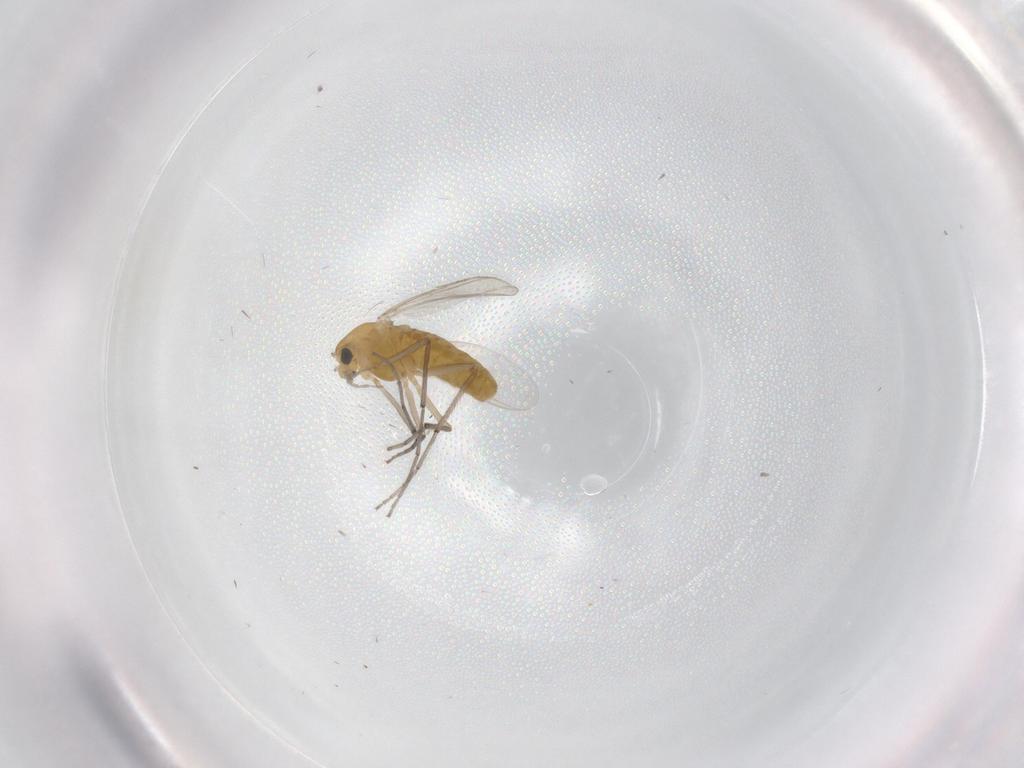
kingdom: Animalia
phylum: Arthropoda
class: Insecta
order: Diptera
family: Chironomidae
